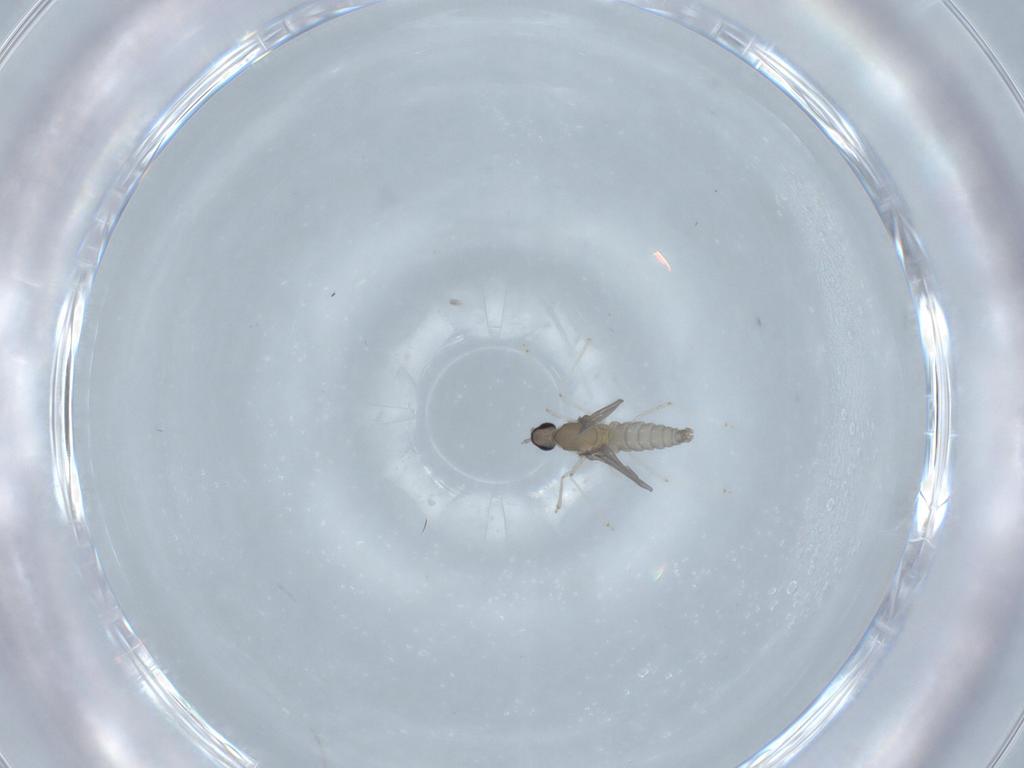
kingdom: Animalia
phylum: Arthropoda
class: Insecta
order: Diptera
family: Cecidomyiidae
